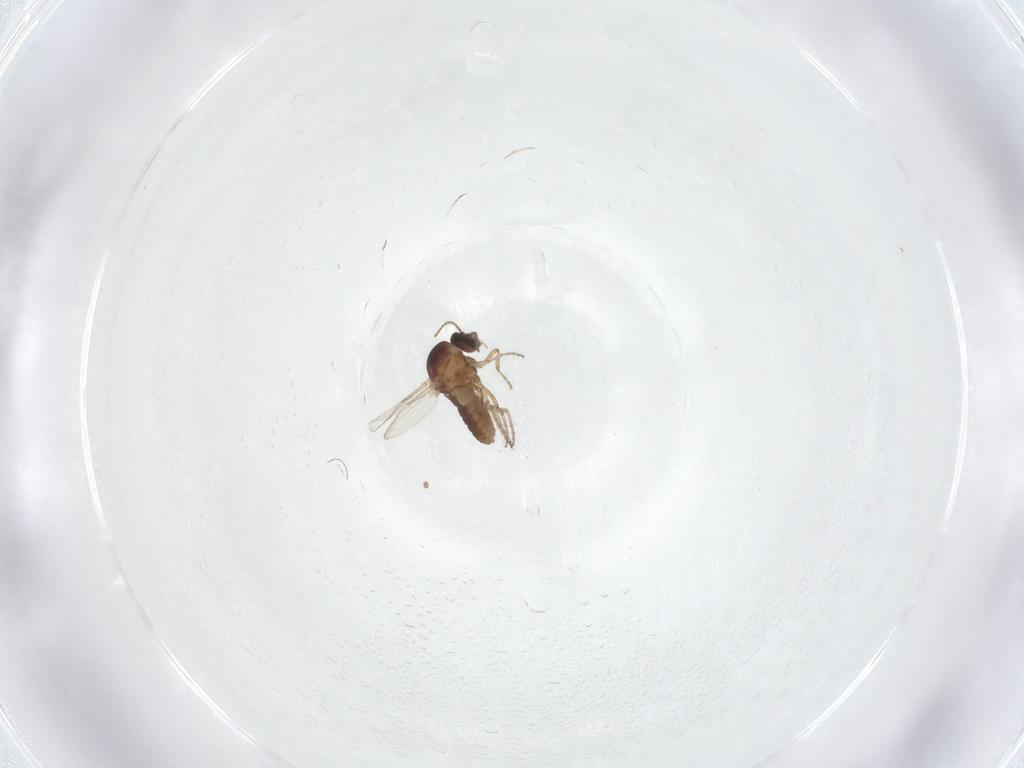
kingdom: Animalia
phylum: Arthropoda
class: Insecta
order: Diptera
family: Ceratopogonidae
